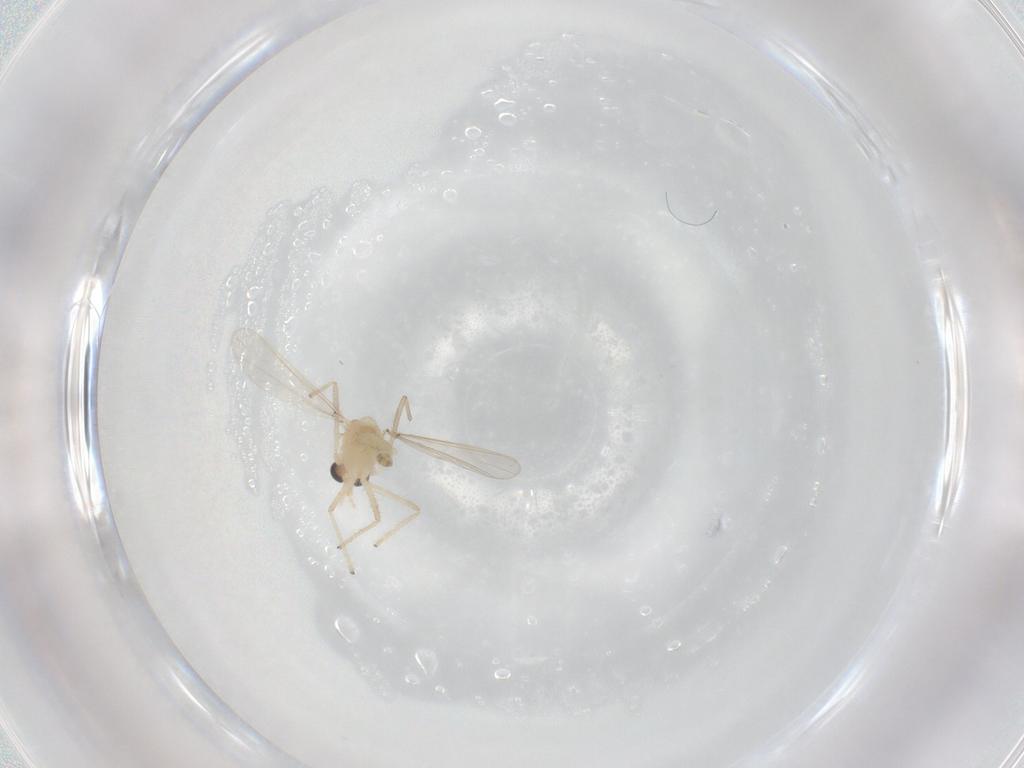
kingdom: Animalia
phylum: Arthropoda
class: Insecta
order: Diptera
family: Chironomidae
